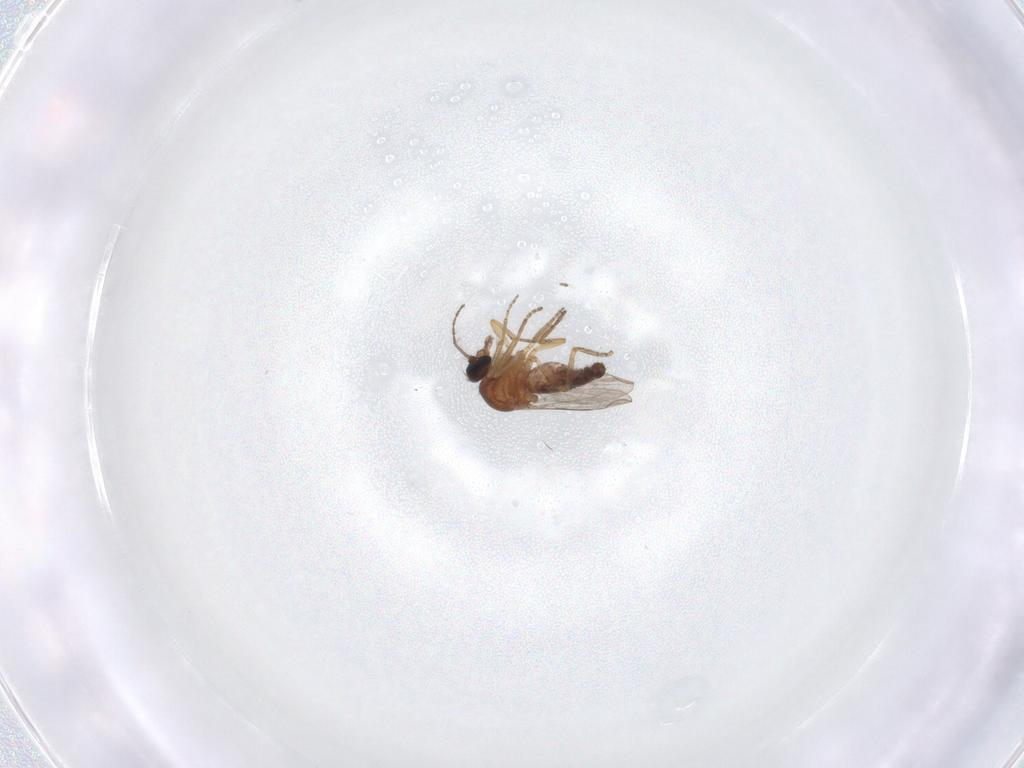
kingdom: Animalia
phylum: Arthropoda
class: Insecta
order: Diptera
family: Ceratopogonidae
